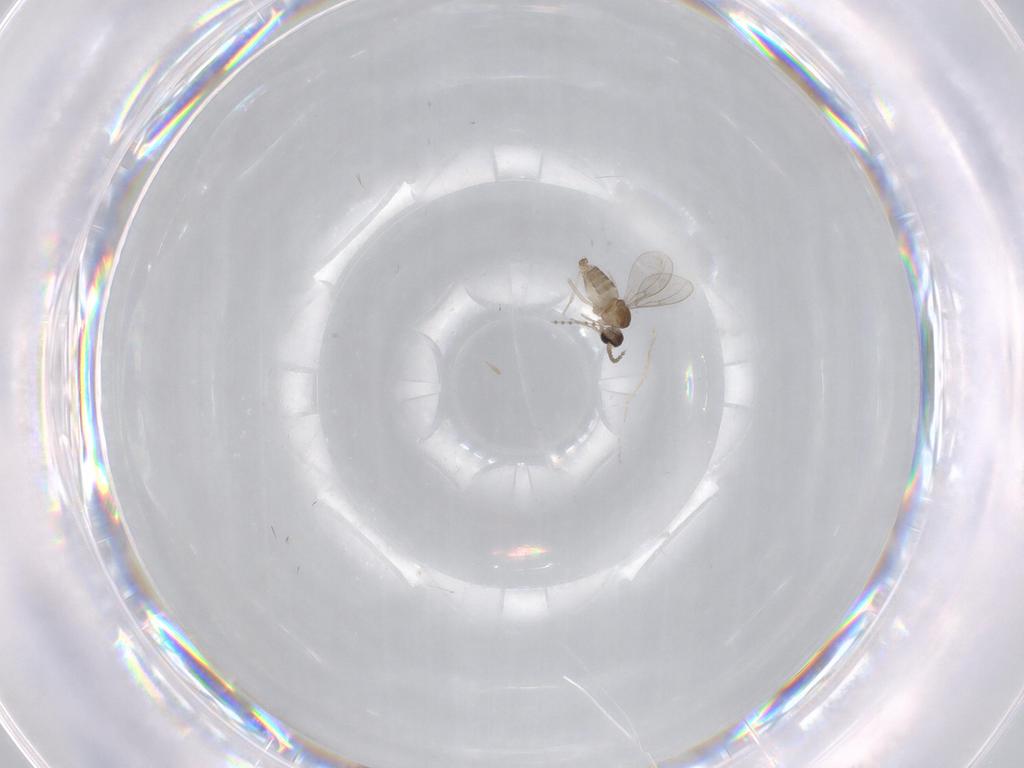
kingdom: Animalia
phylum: Arthropoda
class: Insecta
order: Diptera
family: Cecidomyiidae
